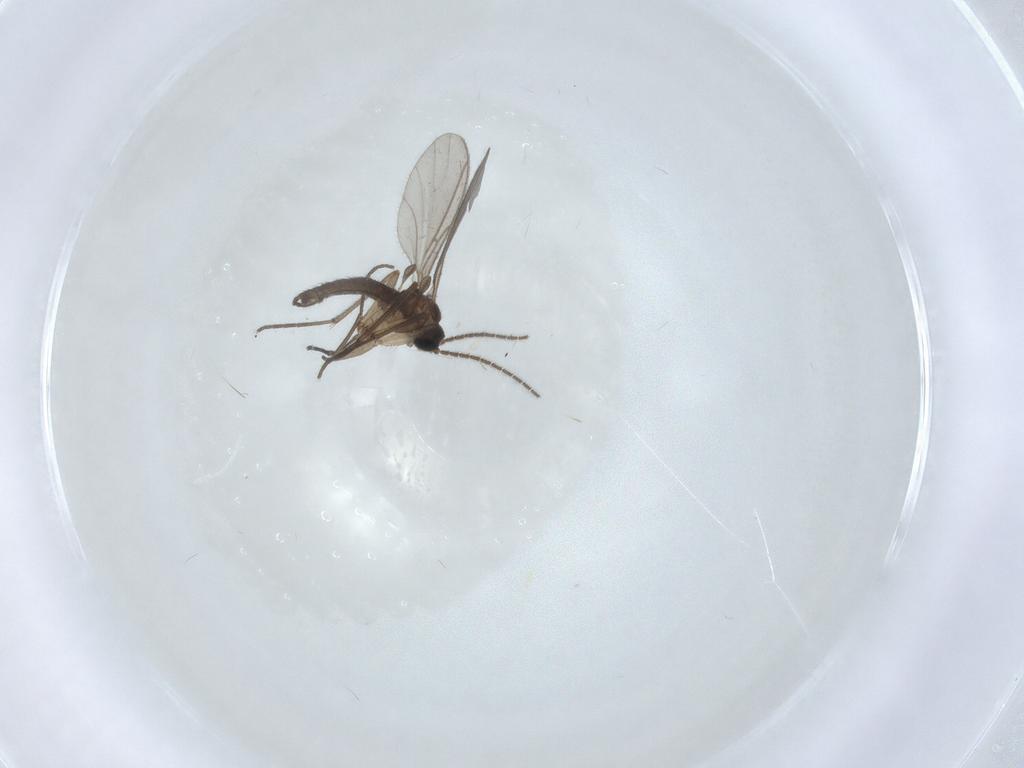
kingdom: Animalia
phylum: Arthropoda
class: Insecta
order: Diptera
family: Sciaridae
